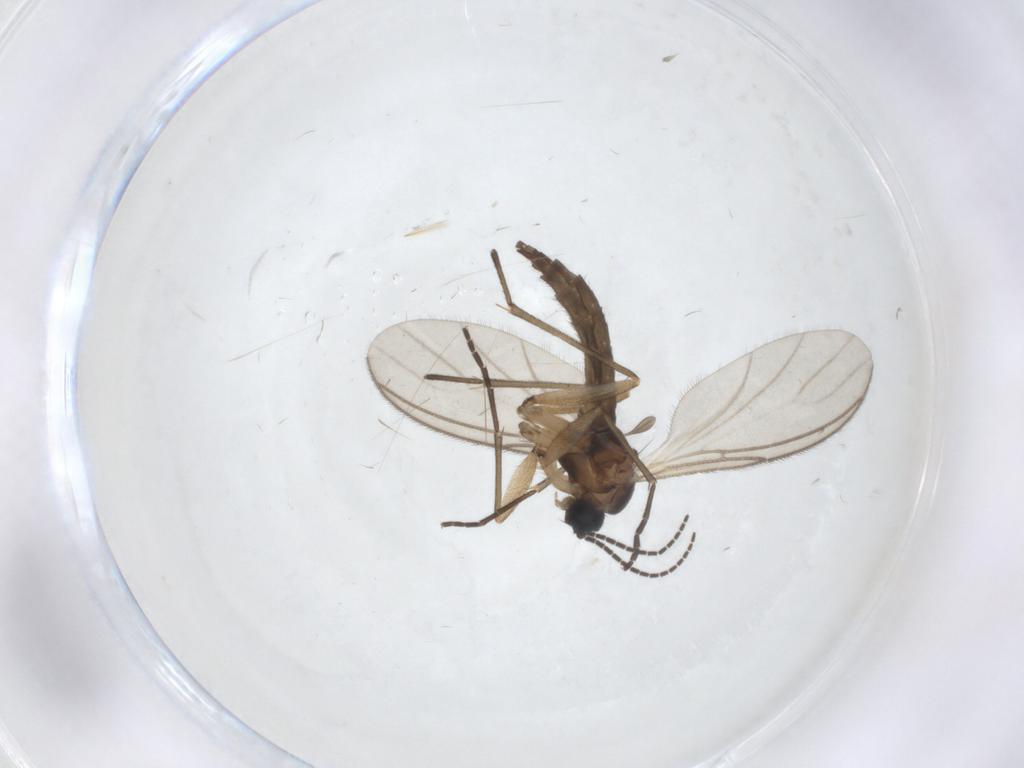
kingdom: Animalia
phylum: Arthropoda
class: Insecta
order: Diptera
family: Sciaridae
